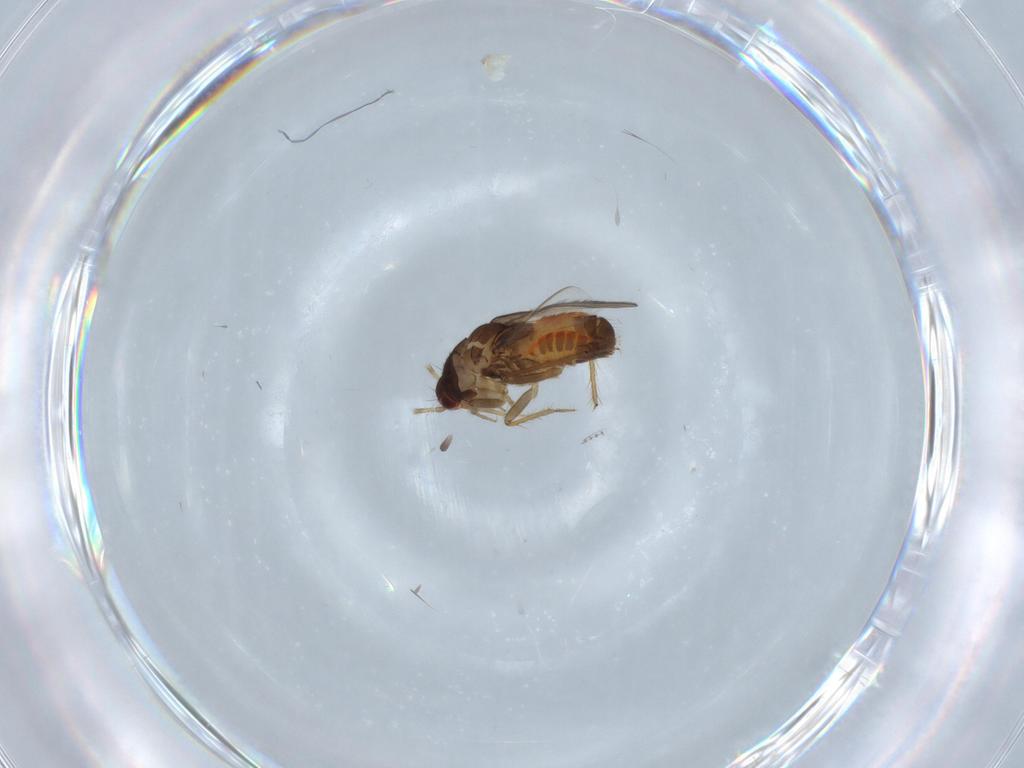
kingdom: Animalia
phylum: Arthropoda
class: Insecta
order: Hemiptera
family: Ceratocombidae
